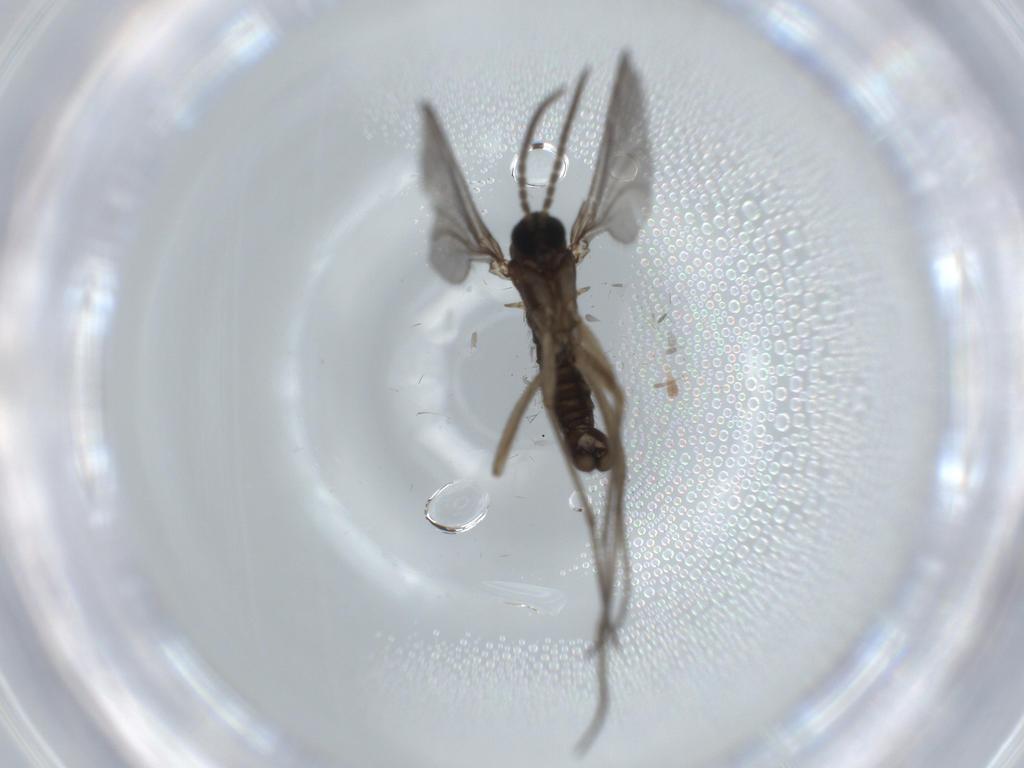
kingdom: Animalia
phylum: Arthropoda
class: Insecta
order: Diptera
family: Sciaridae
